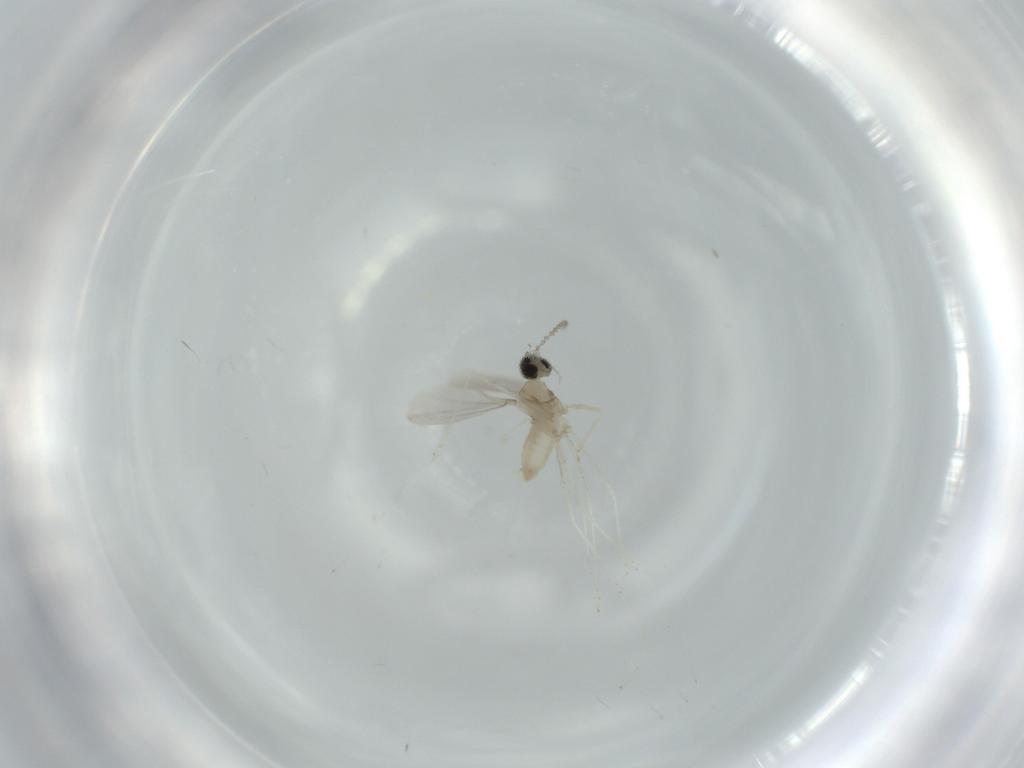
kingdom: Animalia
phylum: Arthropoda
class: Insecta
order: Diptera
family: Sciaridae
